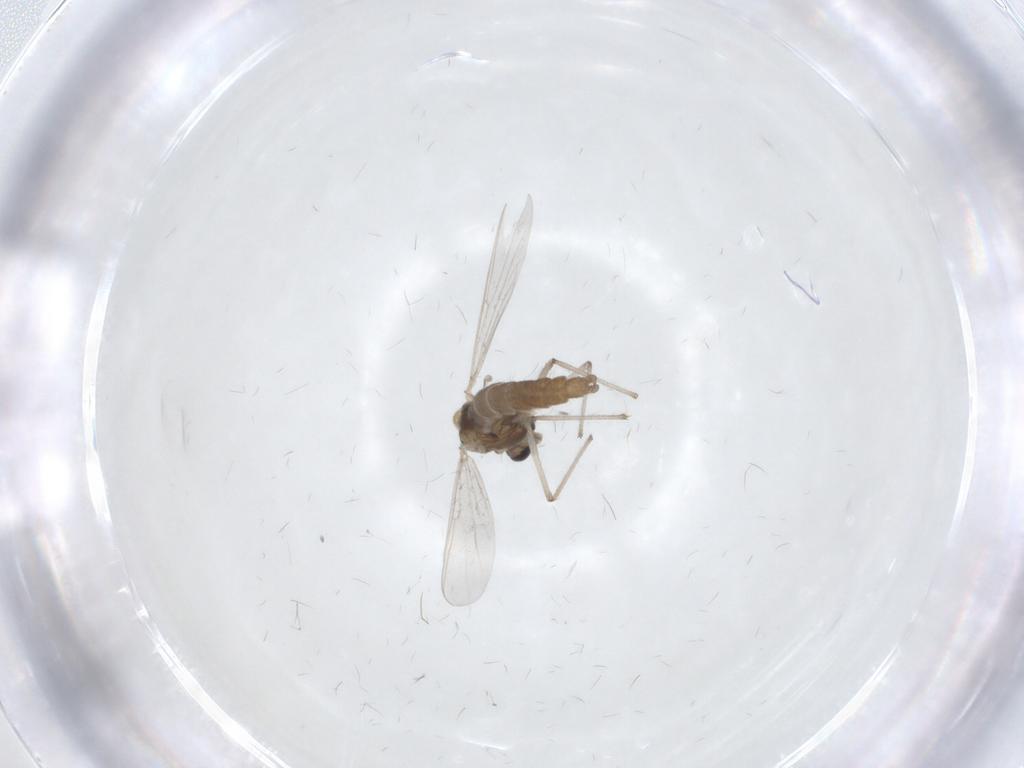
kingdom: Animalia
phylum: Arthropoda
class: Insecta
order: Diptera
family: Chironomidae
